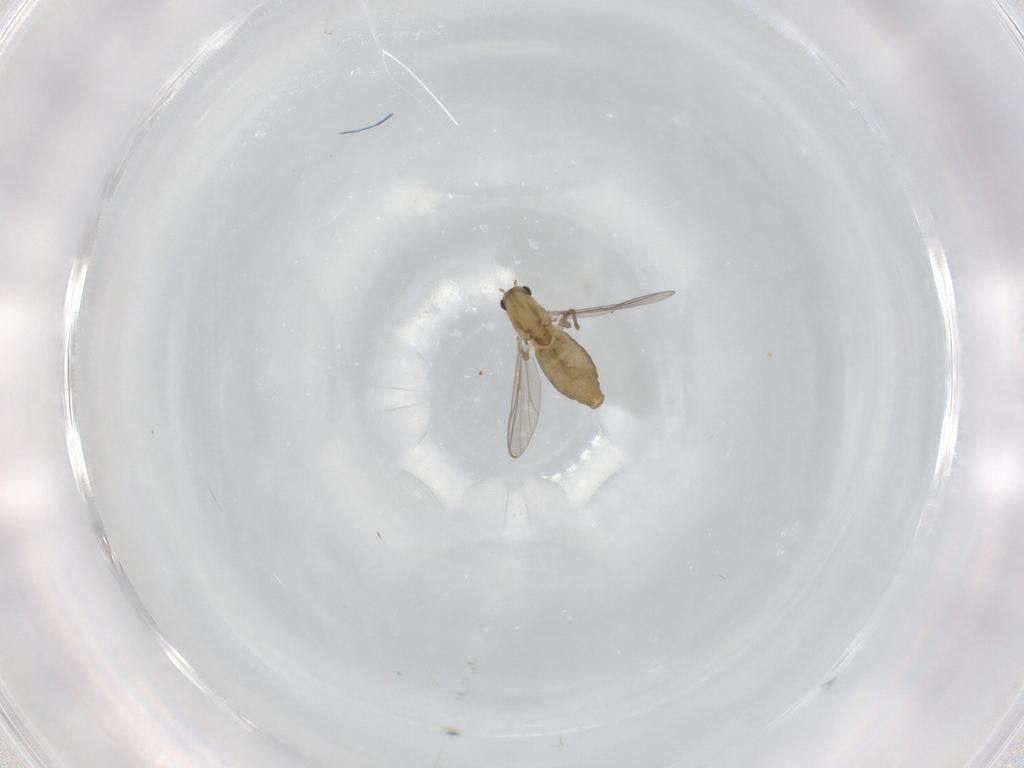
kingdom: Animalia
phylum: Arthropoda
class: Insecta
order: Diptera
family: Chironomidae
